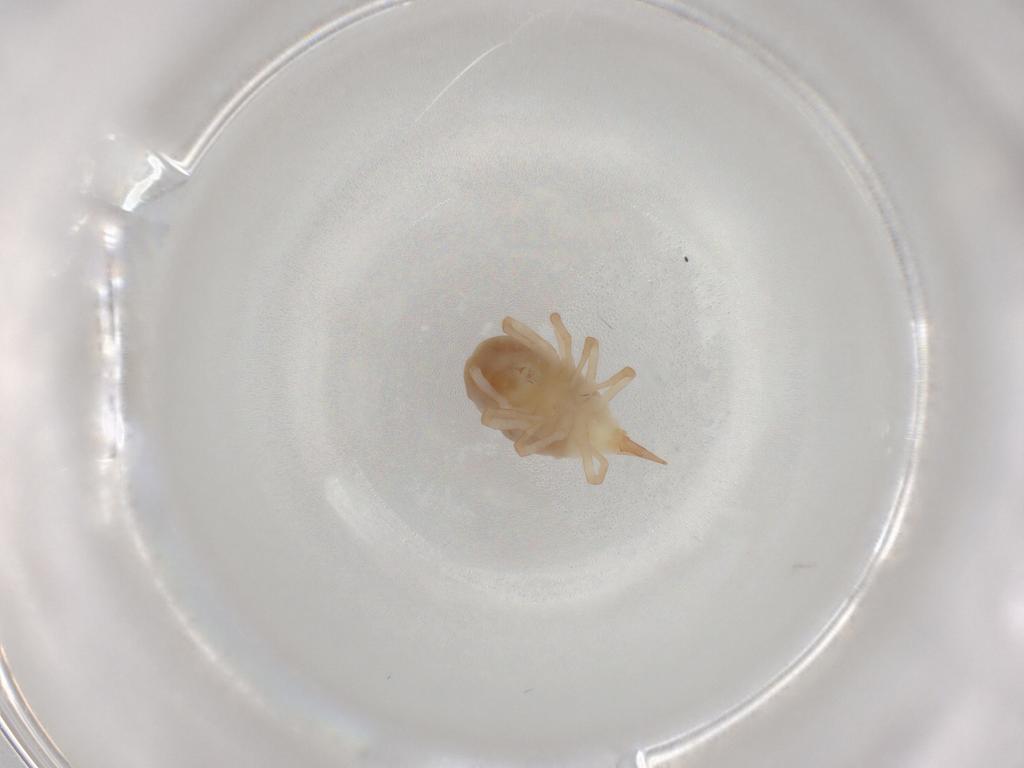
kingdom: Animalia
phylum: Arthropoda
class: Arachnida
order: Trombidiformes
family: Bdellidae
